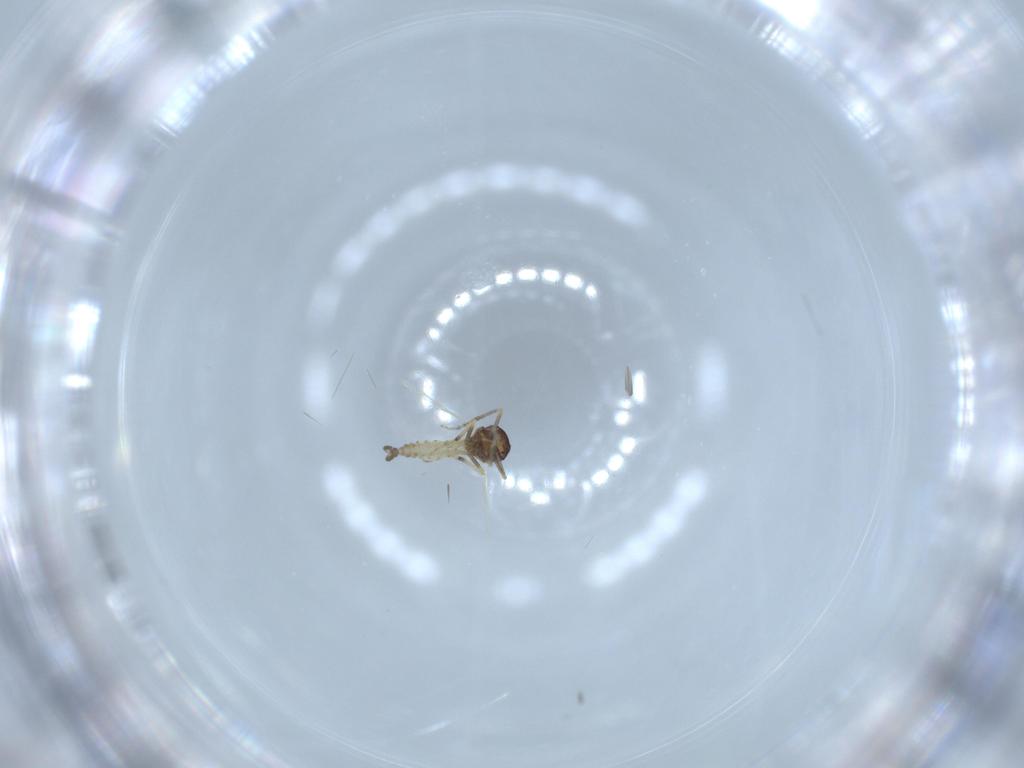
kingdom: Animalia
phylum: Arthropoda
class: Insecta
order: Diptera
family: Ceratopogonidae
